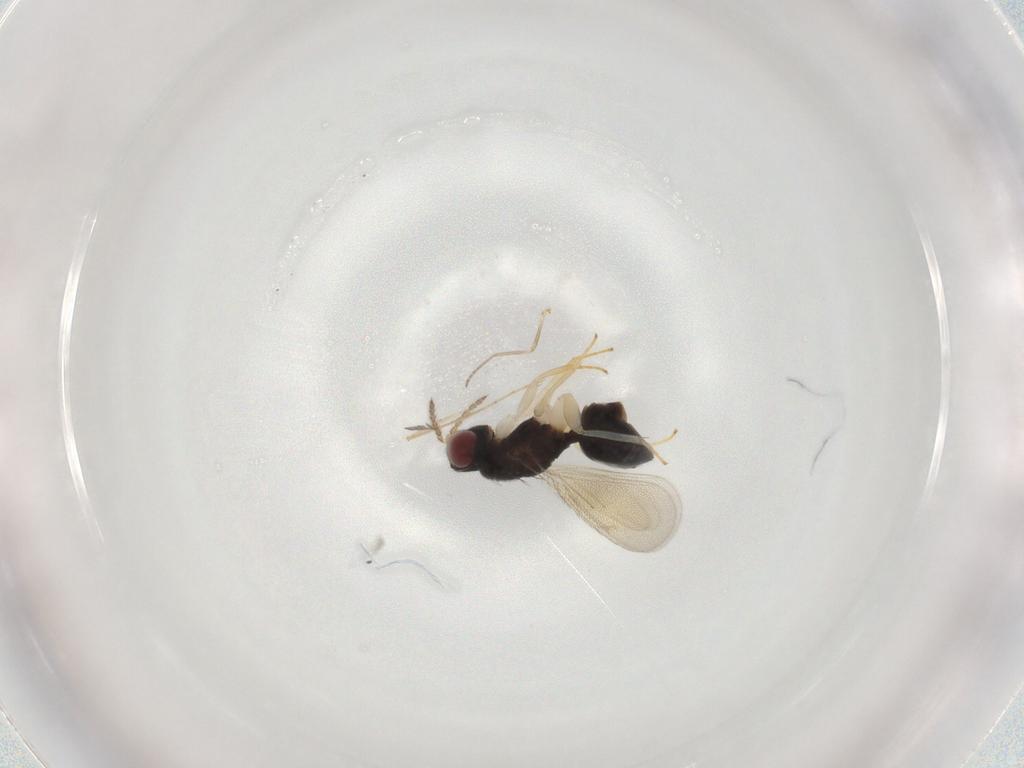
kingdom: Animalia
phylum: Arthropoda
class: Insecta
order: Hymenoptera
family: Eulophidae
